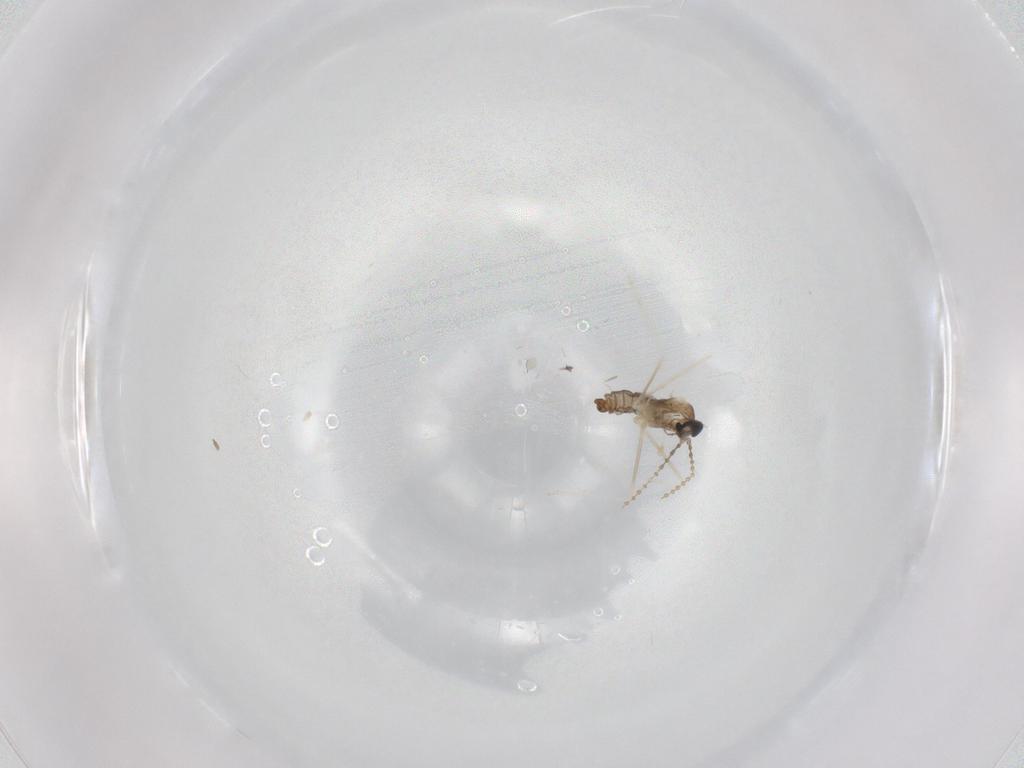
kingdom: Animalia
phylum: Arthropoda
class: Insecta
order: Diptera
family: Cecidomyiidae
